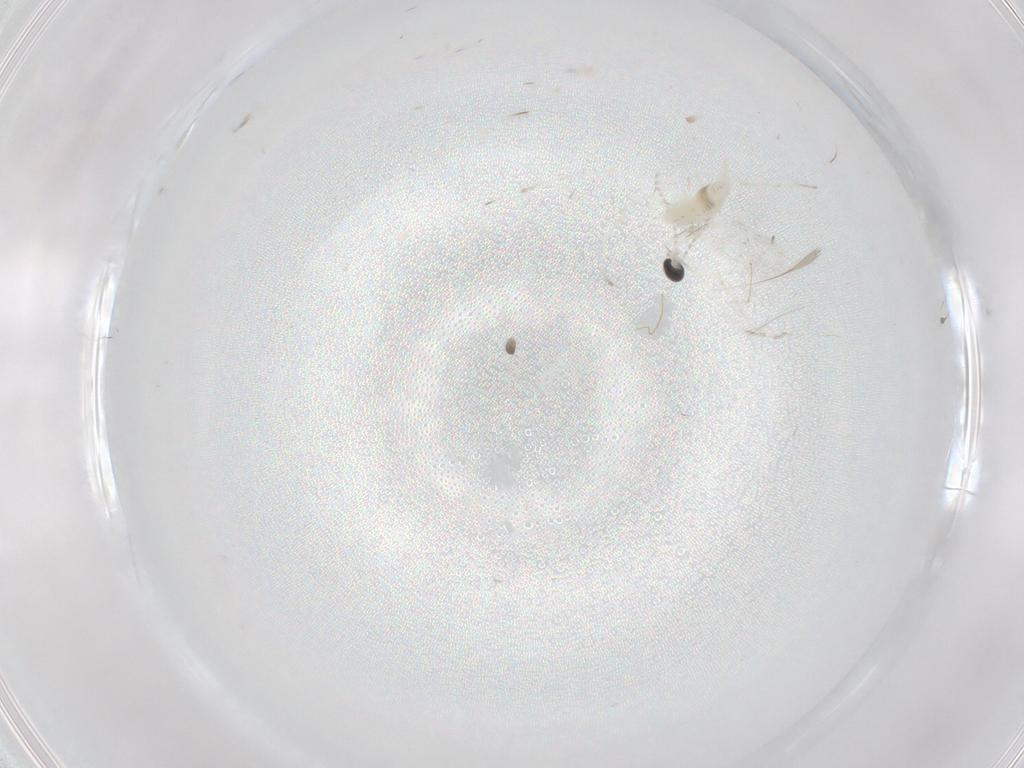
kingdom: Animalia
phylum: Arthropoda
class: Insecta
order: Diptera
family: Cecidomyiidae
